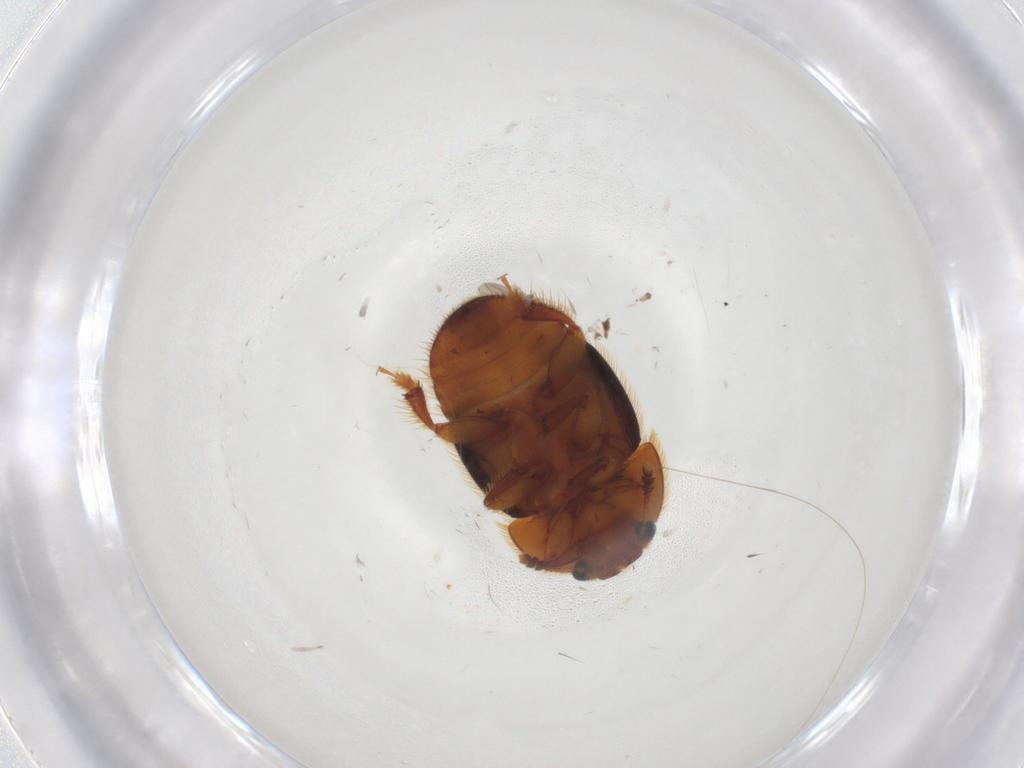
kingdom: Animalia
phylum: Arthropoda
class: Insecta
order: Coleoptera
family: Nitidulidae
